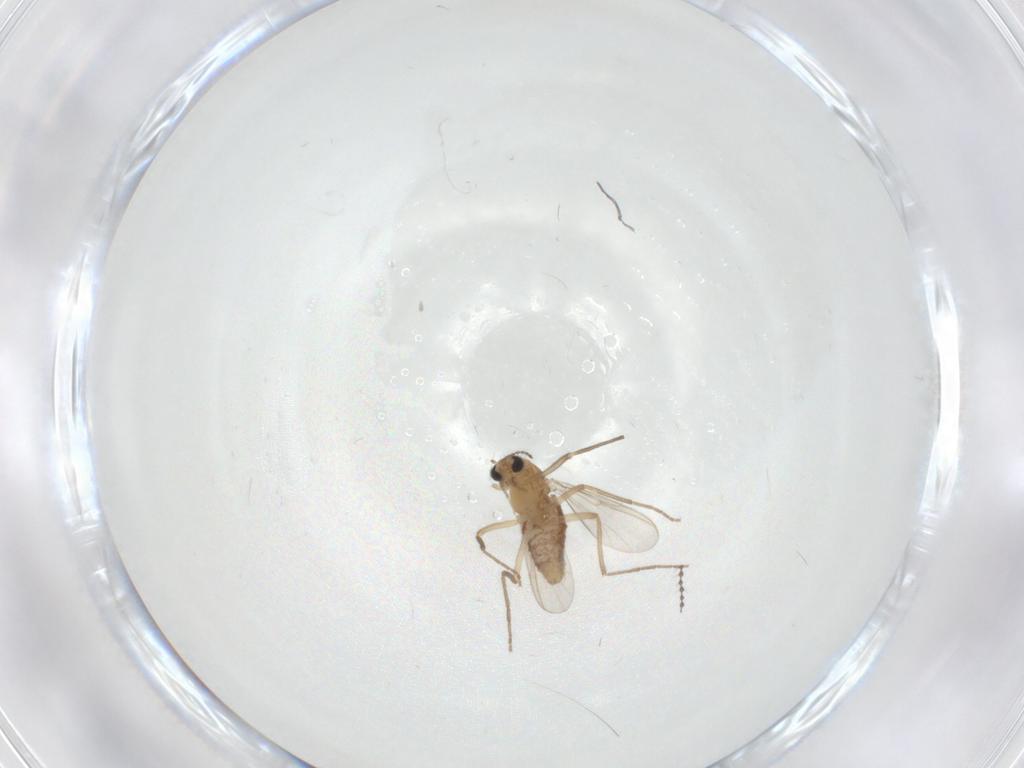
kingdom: Animalia
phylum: Arthropoda
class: Insecta
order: Diptera
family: Chironomidae
